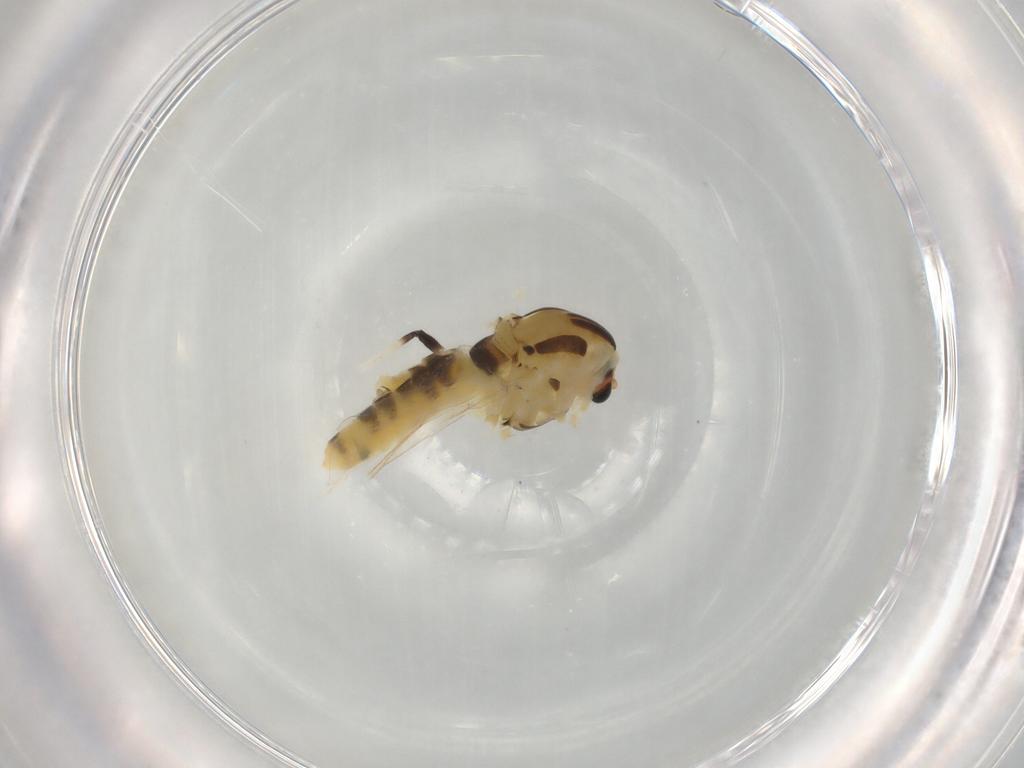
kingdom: Animalia
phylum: Arthropoda
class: Insecta
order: Diptera
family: Chironomidae
